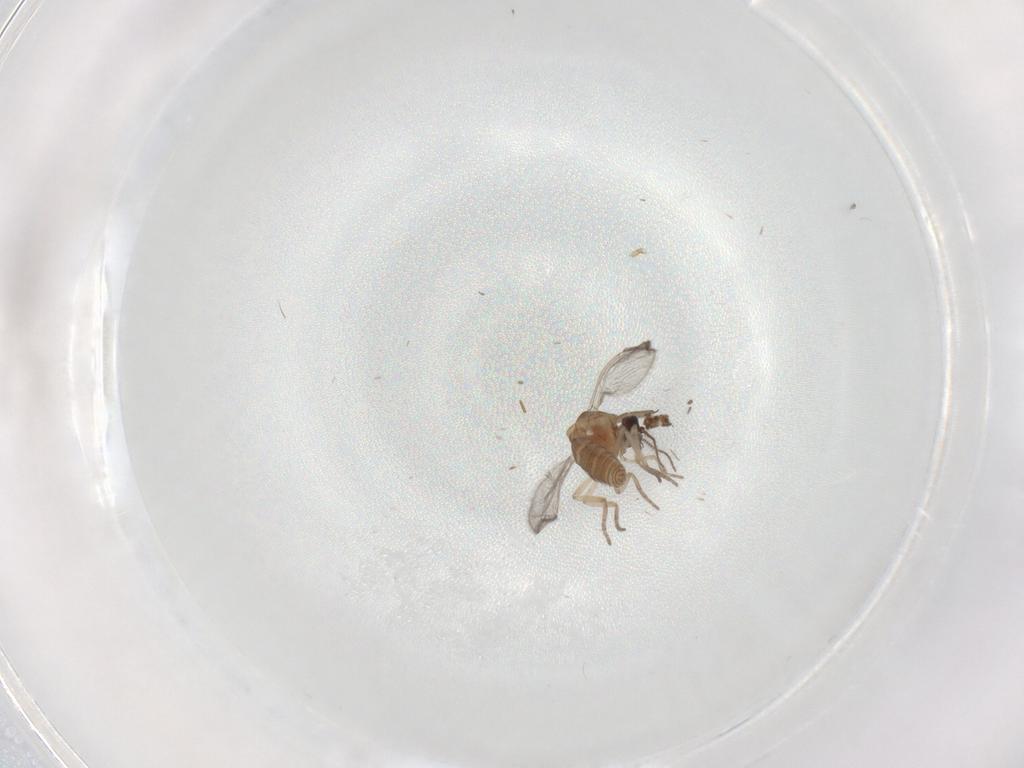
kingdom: Animalia
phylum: Arthropoda
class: Insecta
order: Diptera
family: Chironomidae
